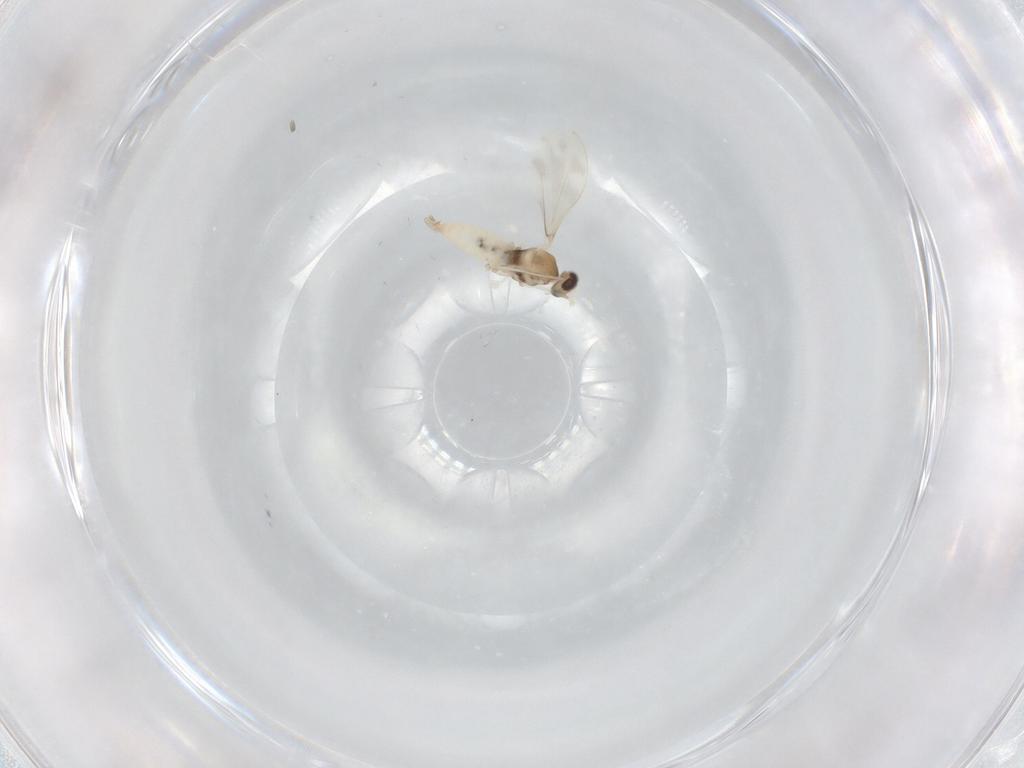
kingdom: Animalia
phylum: Arthropoda
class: Insecta
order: Diptera
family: Cecidomyiidae
